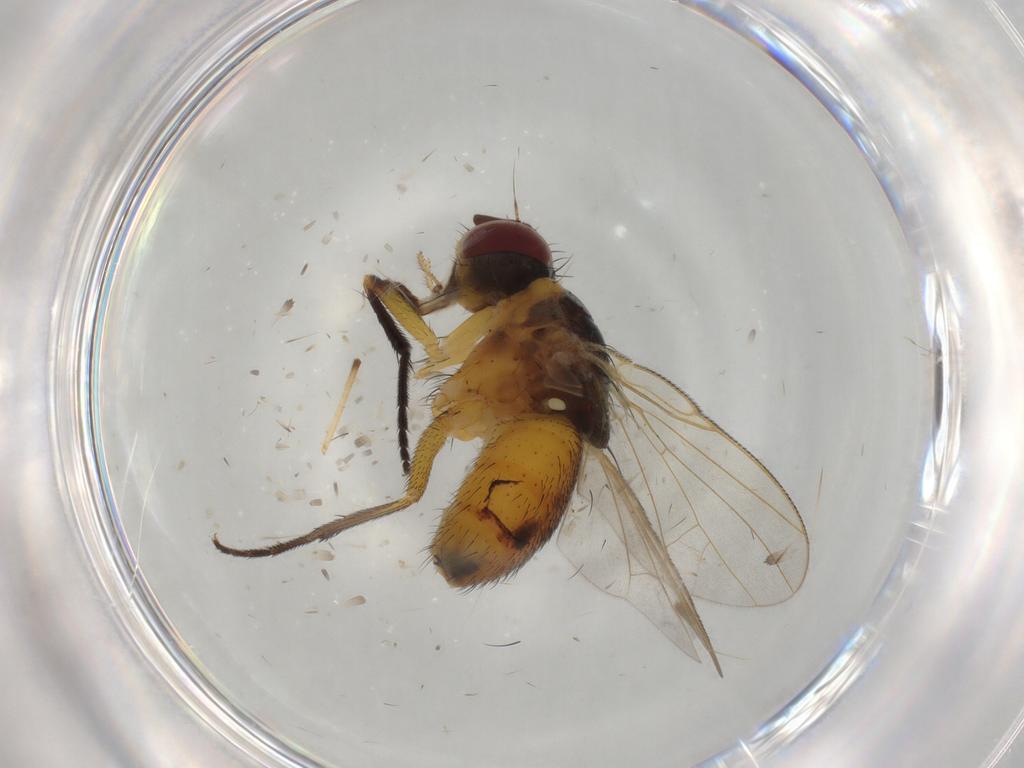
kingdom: Animalia
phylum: Arthropoda
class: Insecta
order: Diptera
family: Muscidae
